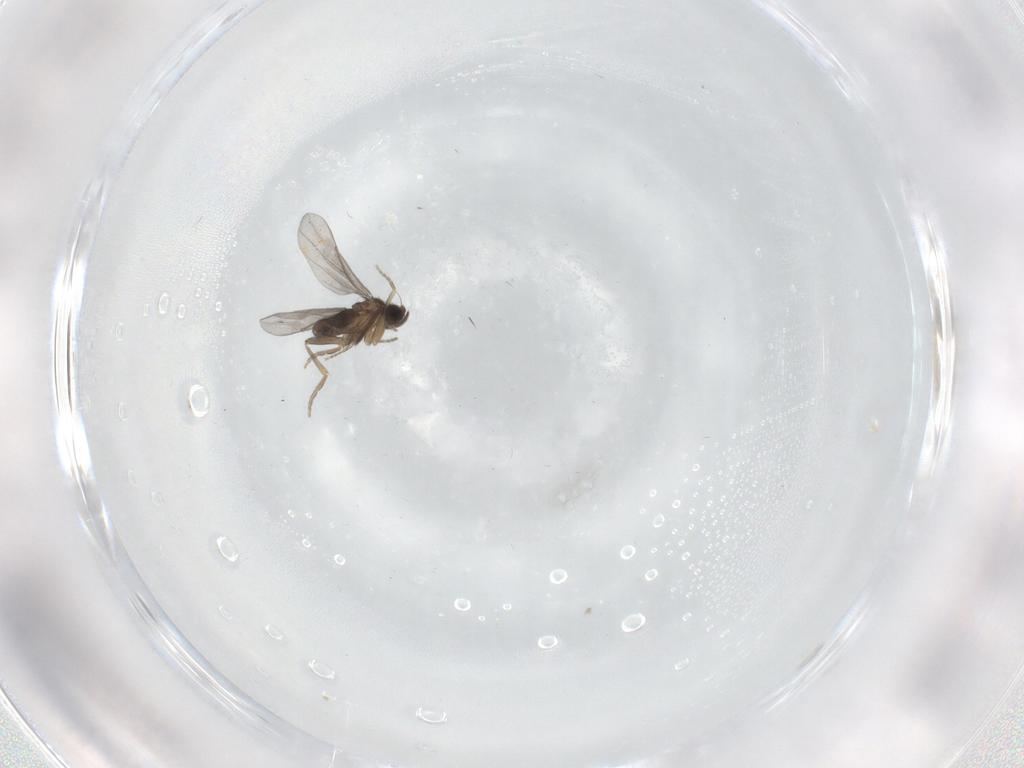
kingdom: Animalia
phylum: Arthropoda
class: Insecta
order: Diptera
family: Chironomidae
